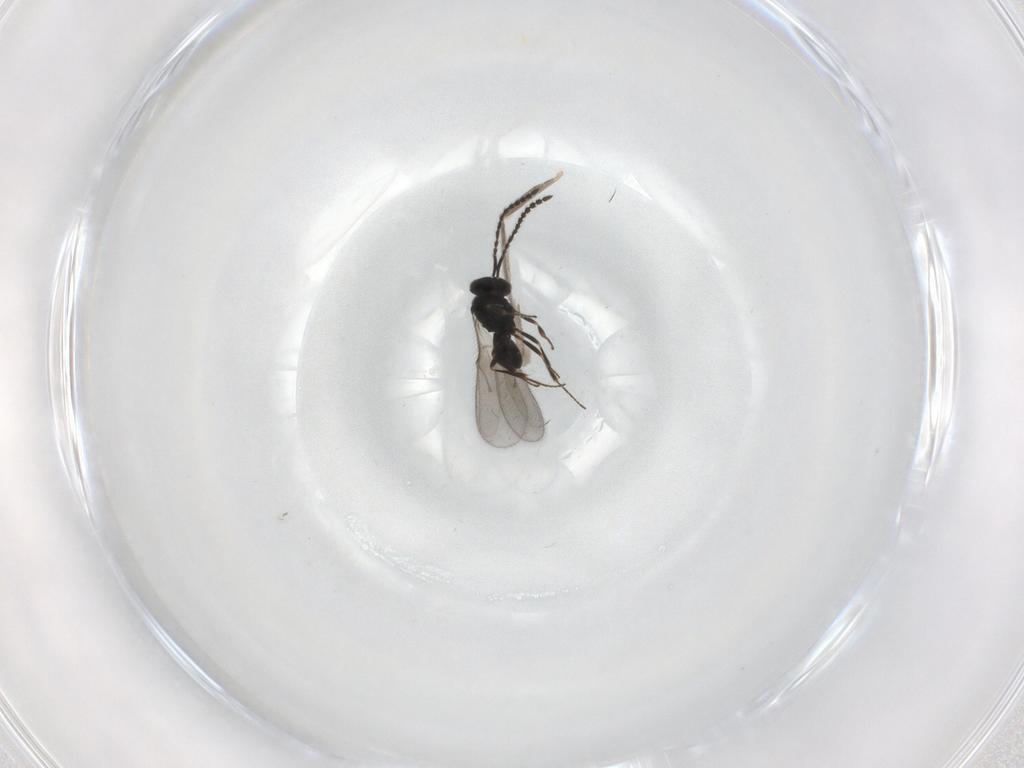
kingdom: Animalia
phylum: Arthropoda
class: Insecta
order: Hymenoptera
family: Scelionidae
